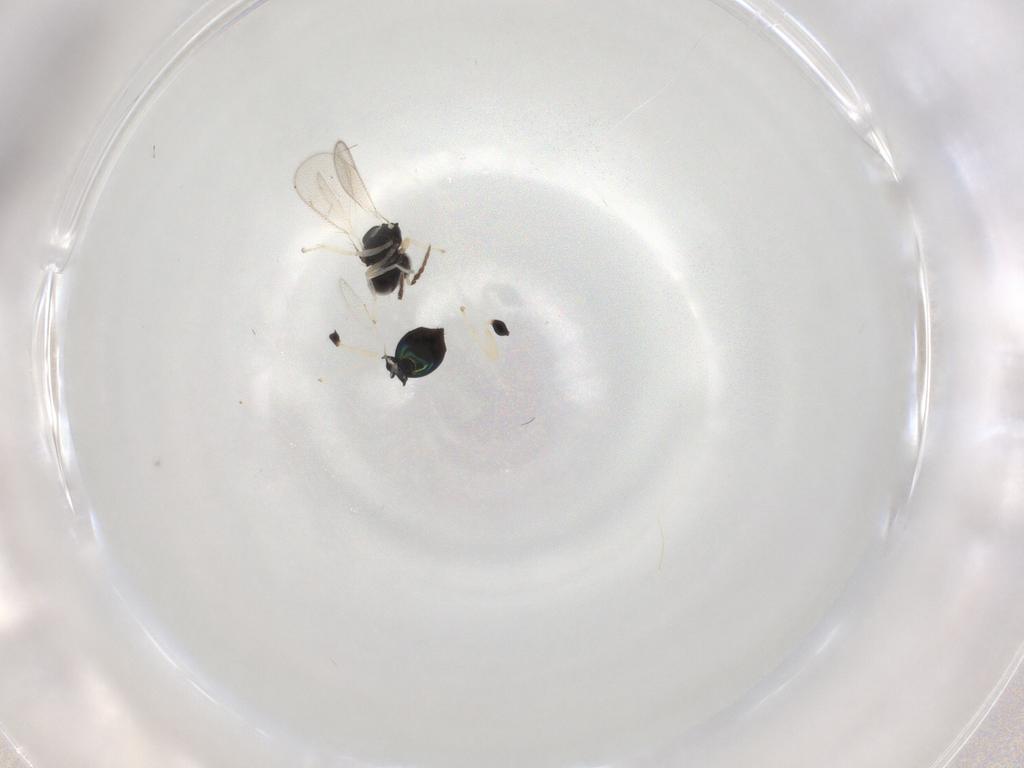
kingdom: Animalia
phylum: Arthropoda
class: Insecta
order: Hymenoptera
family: Eulophidae
